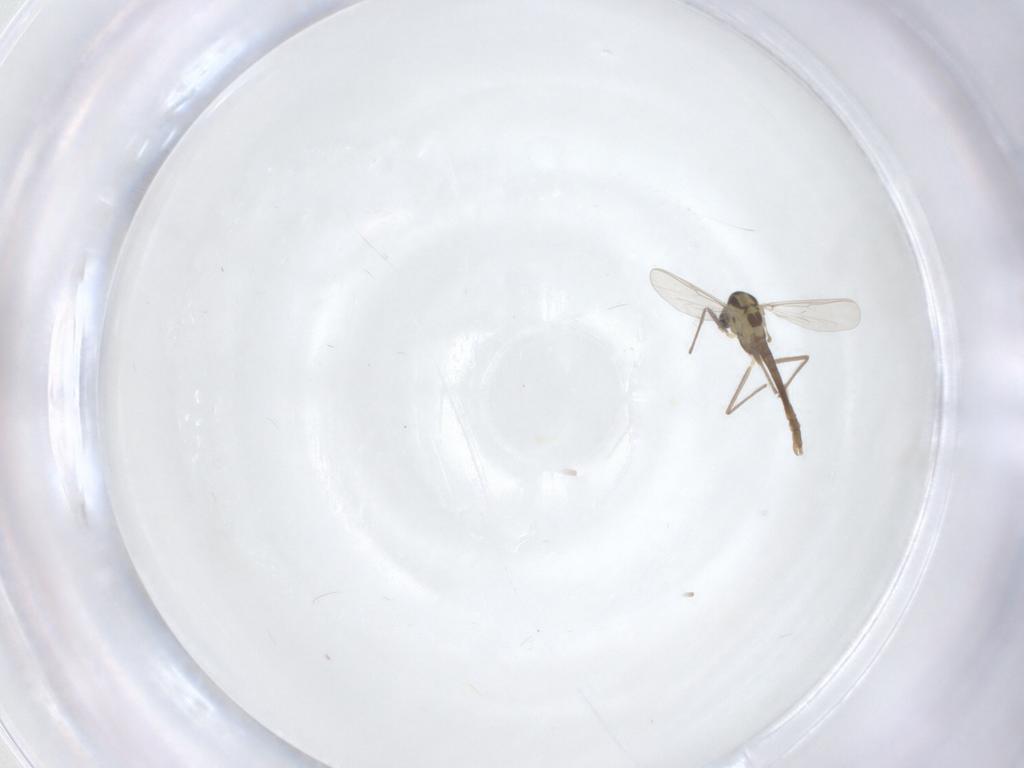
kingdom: Animalia
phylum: Arthropoda
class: Insecta
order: Diptera
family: Chironomidae
